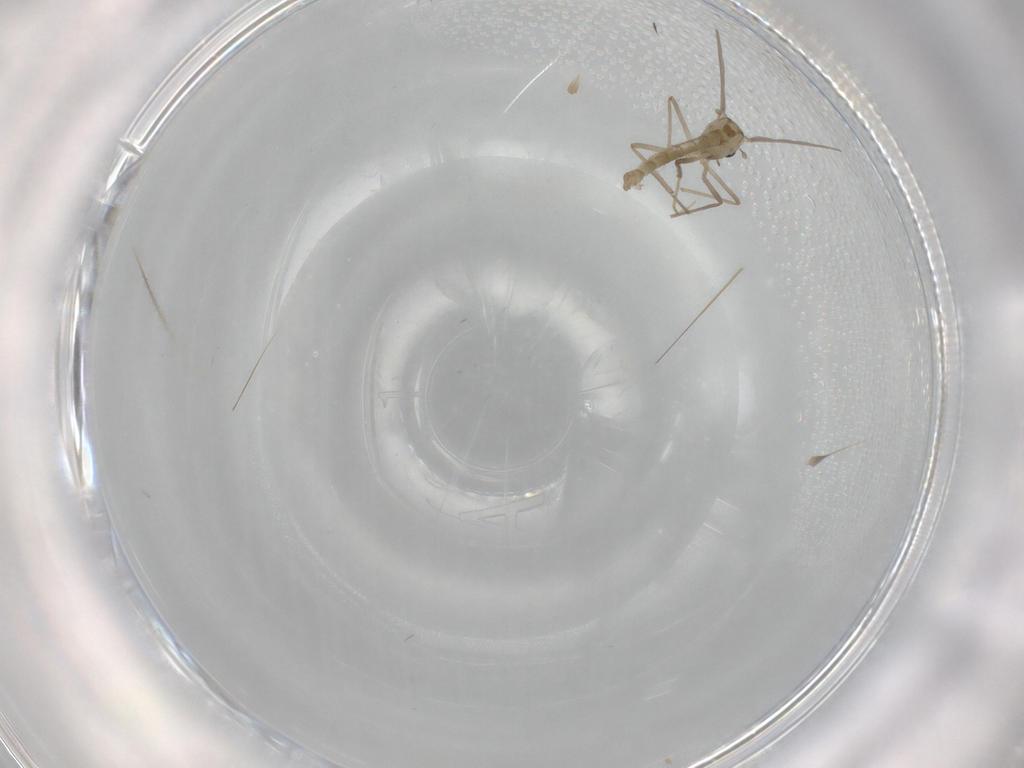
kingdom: Animalia
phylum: Arthropoda
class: Insecta
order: Diptera
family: Chironomidae
